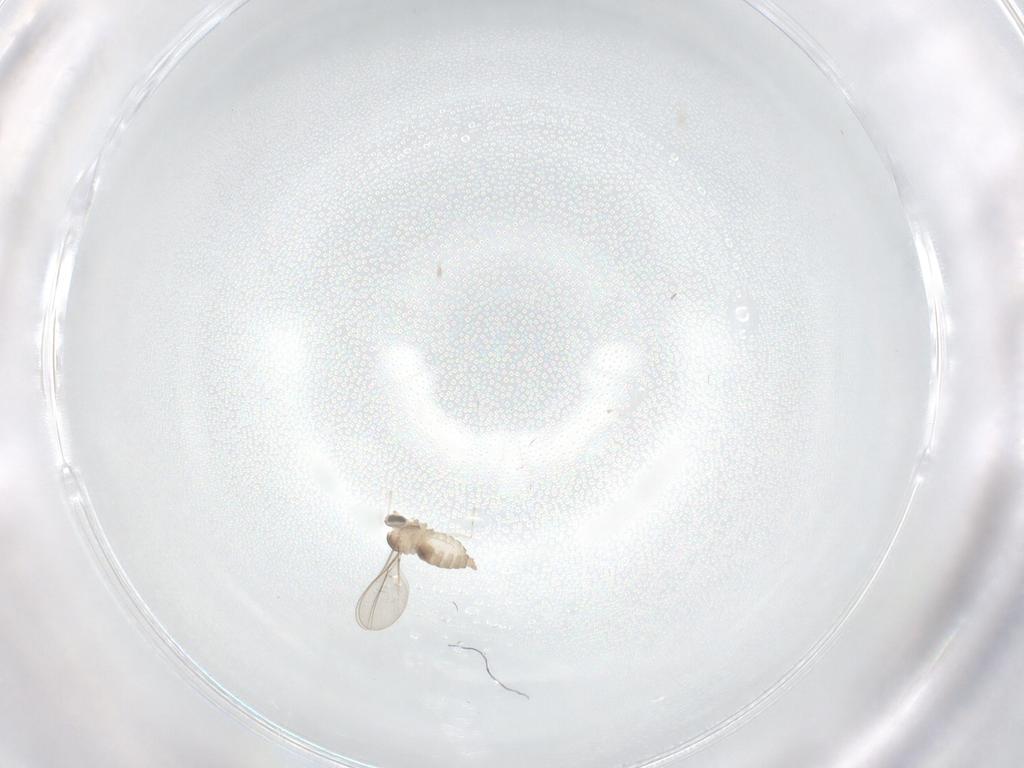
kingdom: Animalia
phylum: Arthropoda
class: Insecta
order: Diptera
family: Cecidomyiidae
